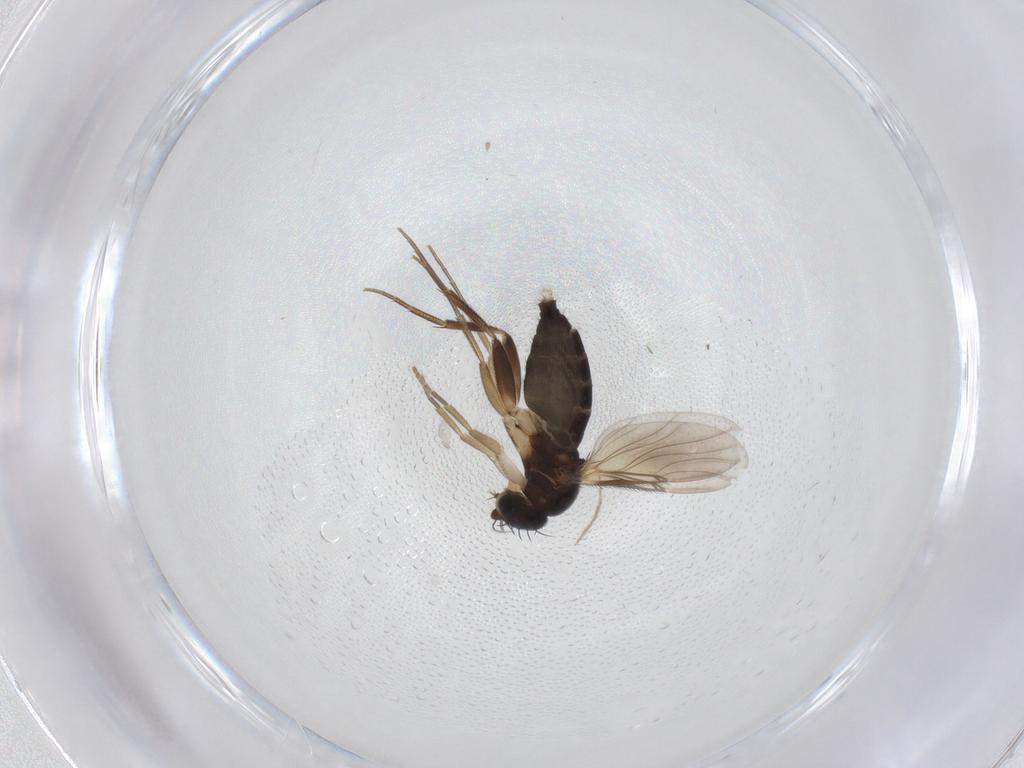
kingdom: Animalia
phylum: Arthropoda
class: Insecta
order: Diptera
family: Phoridae
